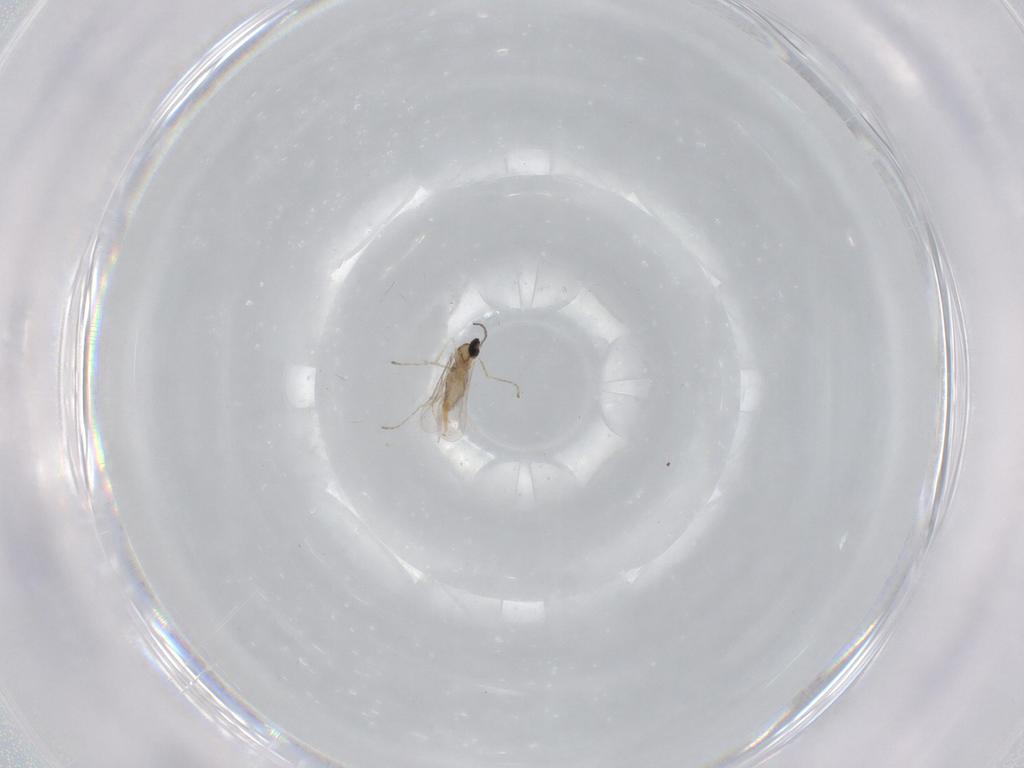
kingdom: Animalia
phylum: Arthropoda
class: Insecta
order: Diptera
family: Cecidomyiidae
